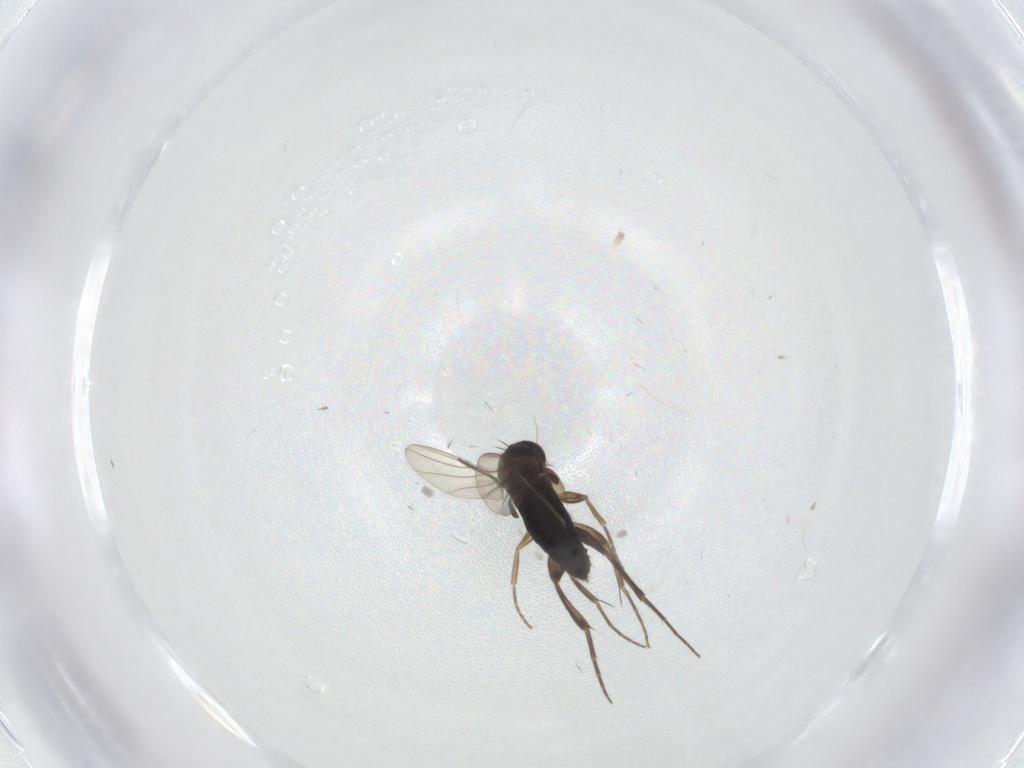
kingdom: Animalia
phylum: Arthropoda
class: Insecta
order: Diptera
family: Phoridae
